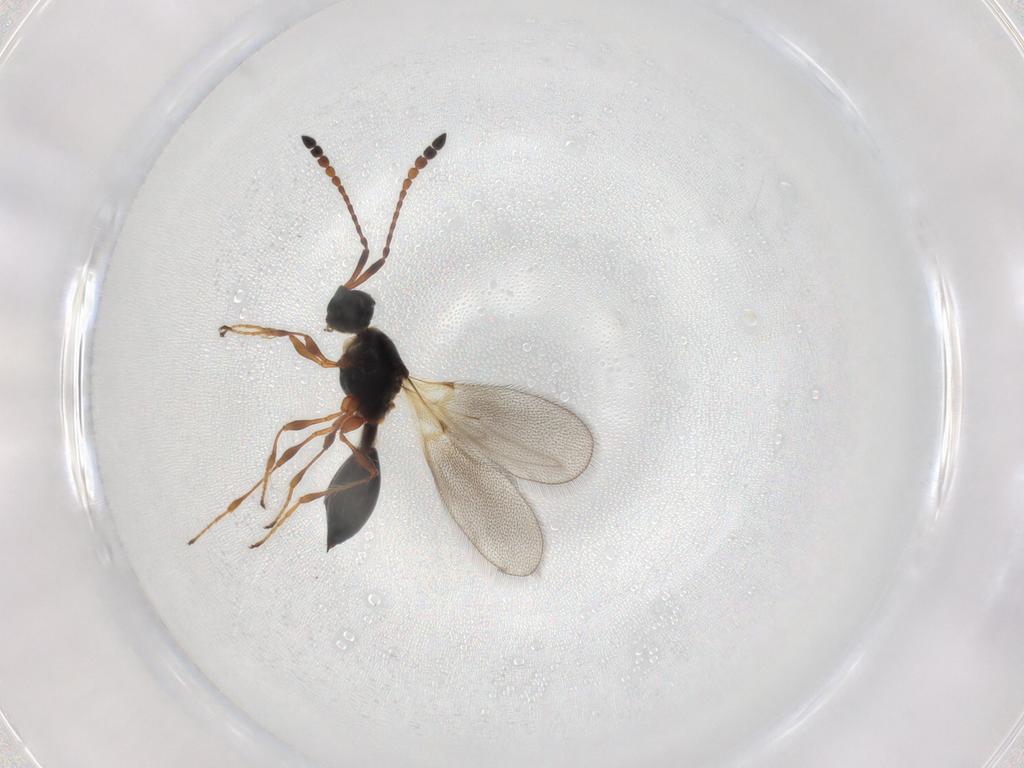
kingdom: Animalia
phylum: Arthropoda
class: Insecta
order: Hymenoptera
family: Diapriidae
